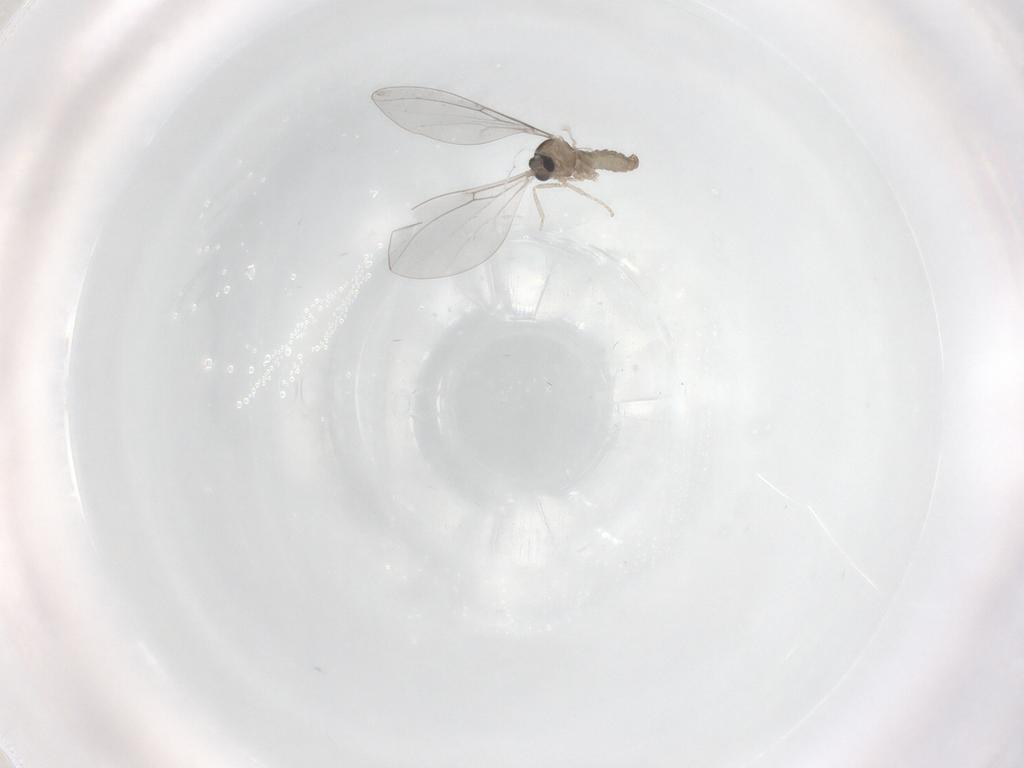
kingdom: Animalia
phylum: Arthropoda
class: Insecta
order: Diptera
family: Cecidomyiidae
